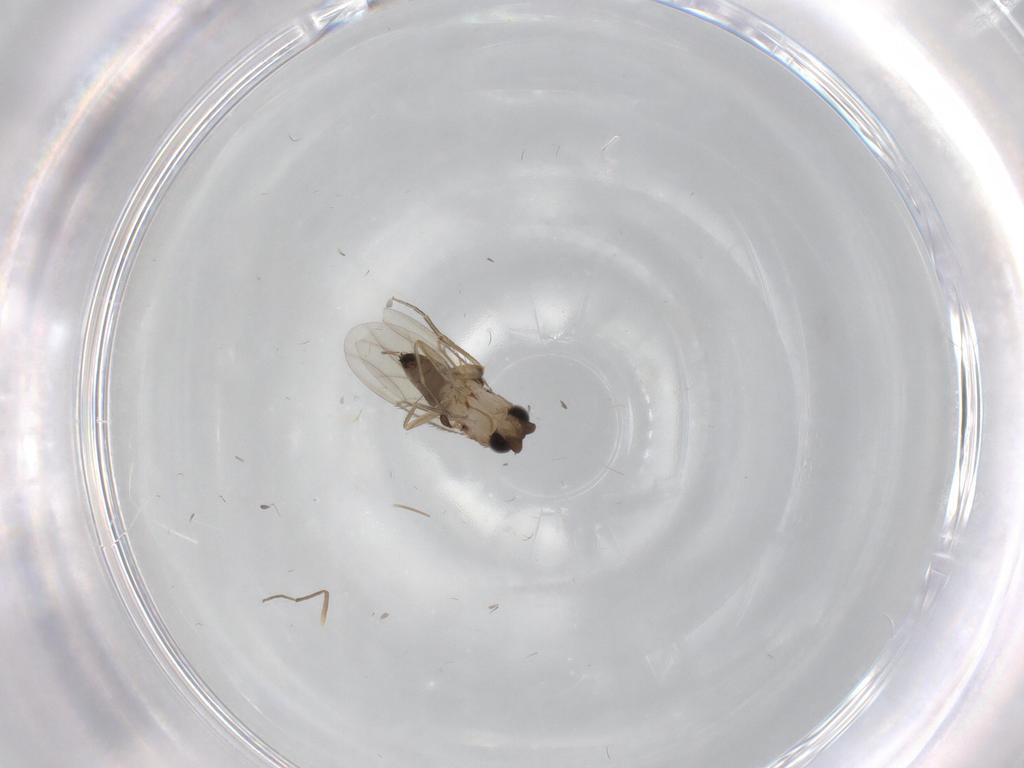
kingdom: Animalia
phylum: Arthropoda
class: Insecta
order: Diptera
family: Phoridae
